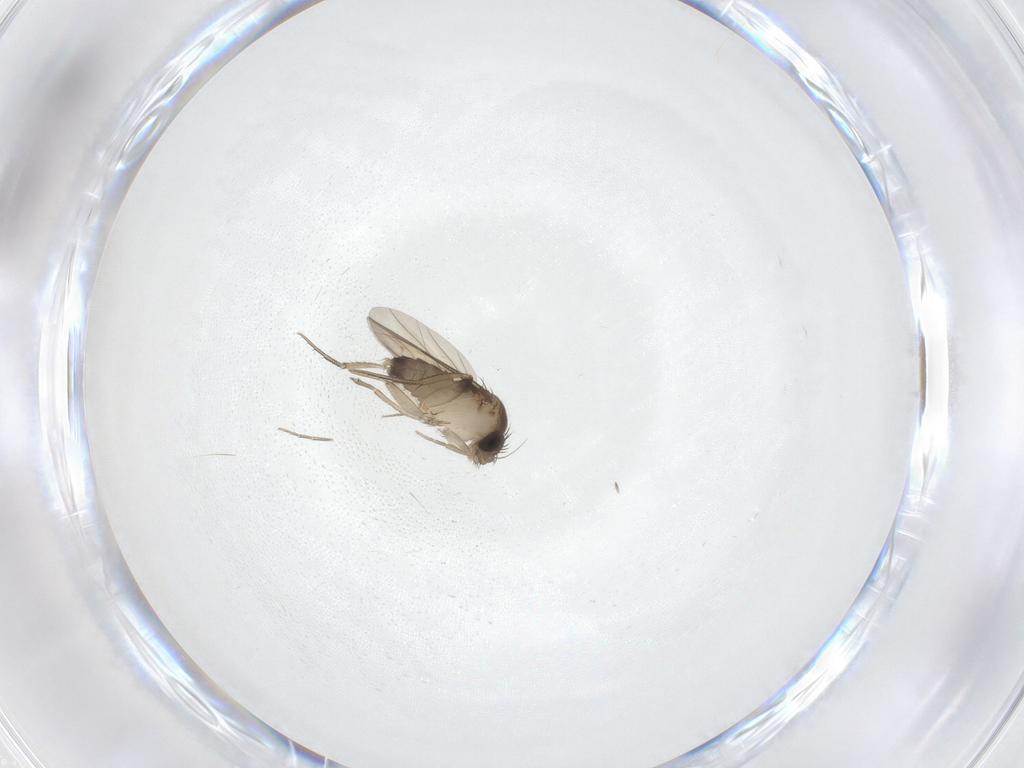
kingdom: Animalia
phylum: Arthropoda
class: Insecta
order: Diptera
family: Phoridae
